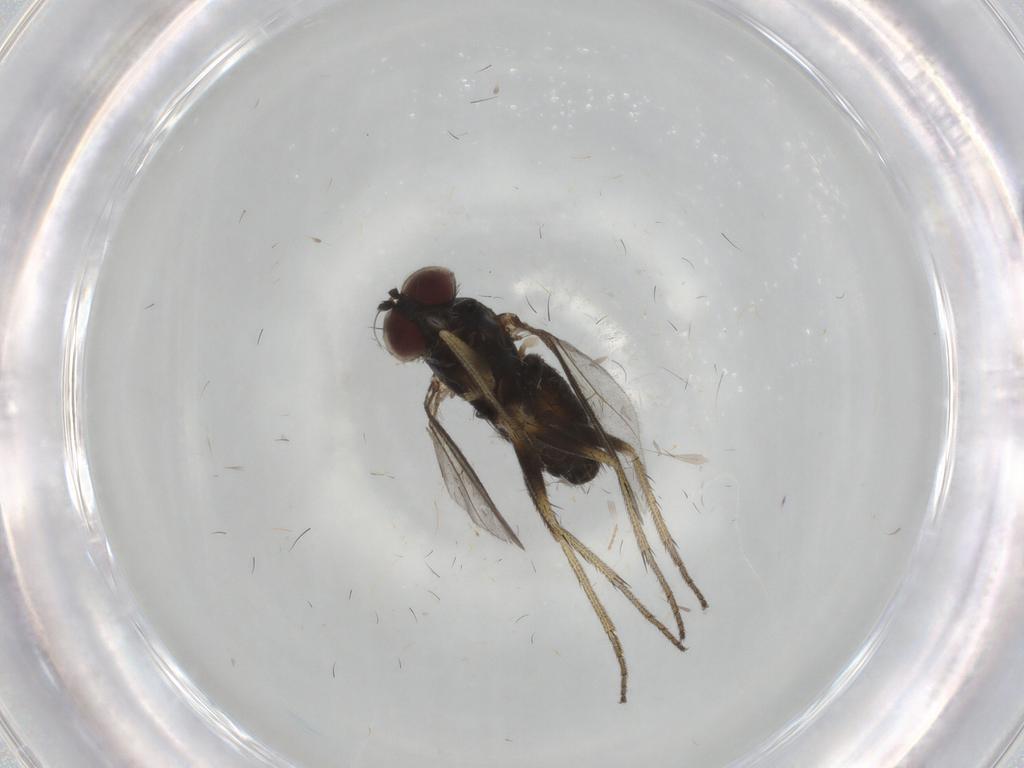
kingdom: Animalia
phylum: Arthropoda
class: Insecta
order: Diptera
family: Cecidomyiidae
